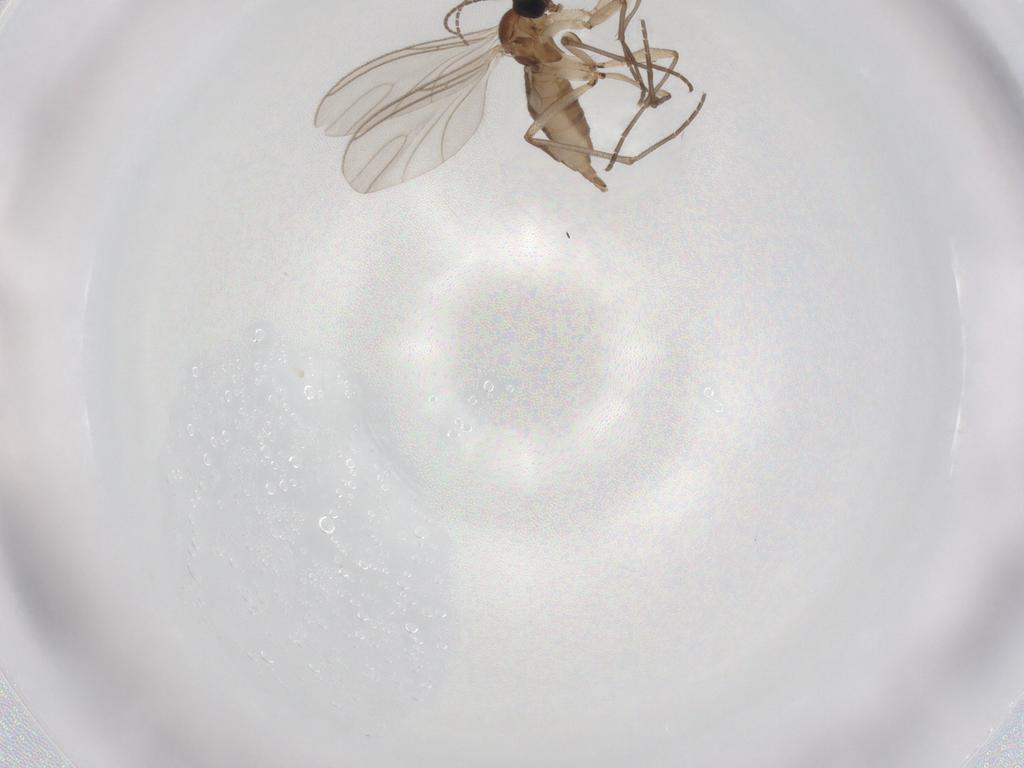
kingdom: Animalia
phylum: Arthropoda
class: Insecta
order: Diptera
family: Sciaridae
